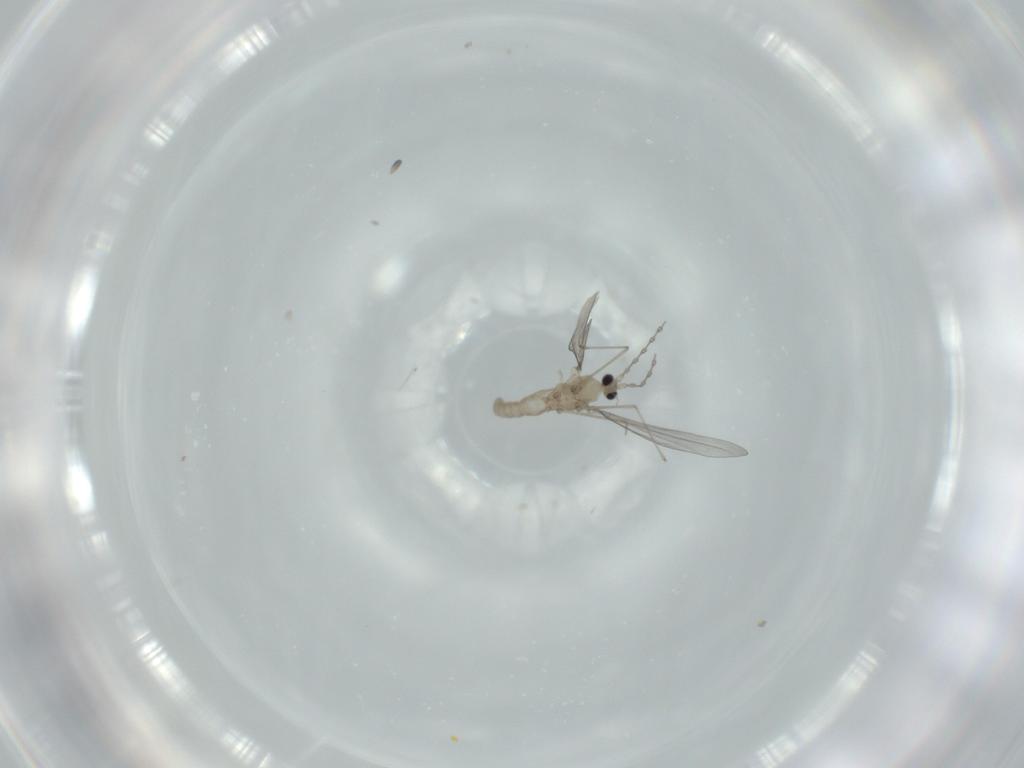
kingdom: Animalia
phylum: Arthropoda
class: Insecta
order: Diptera
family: Cecidomyiidae
